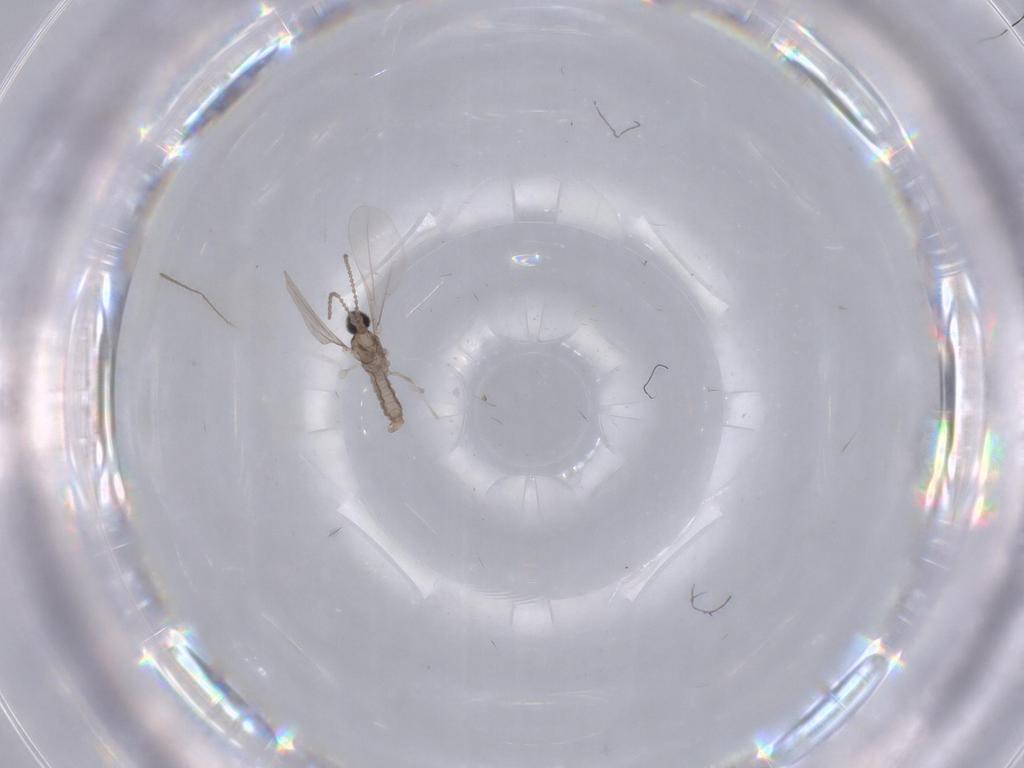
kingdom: Animalia
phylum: Arthropoda
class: Insecta
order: Diptera
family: Cecidomyiidae
